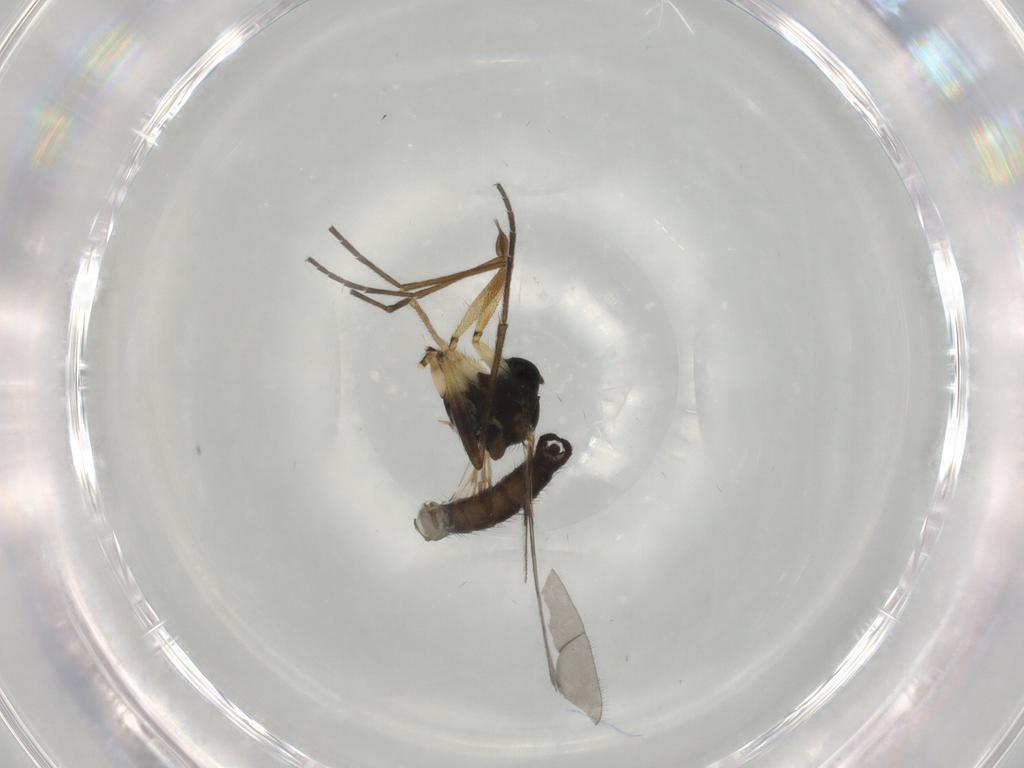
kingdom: Animalia
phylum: Arthropoda
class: Insecta
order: Diptera
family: Sciaridae
